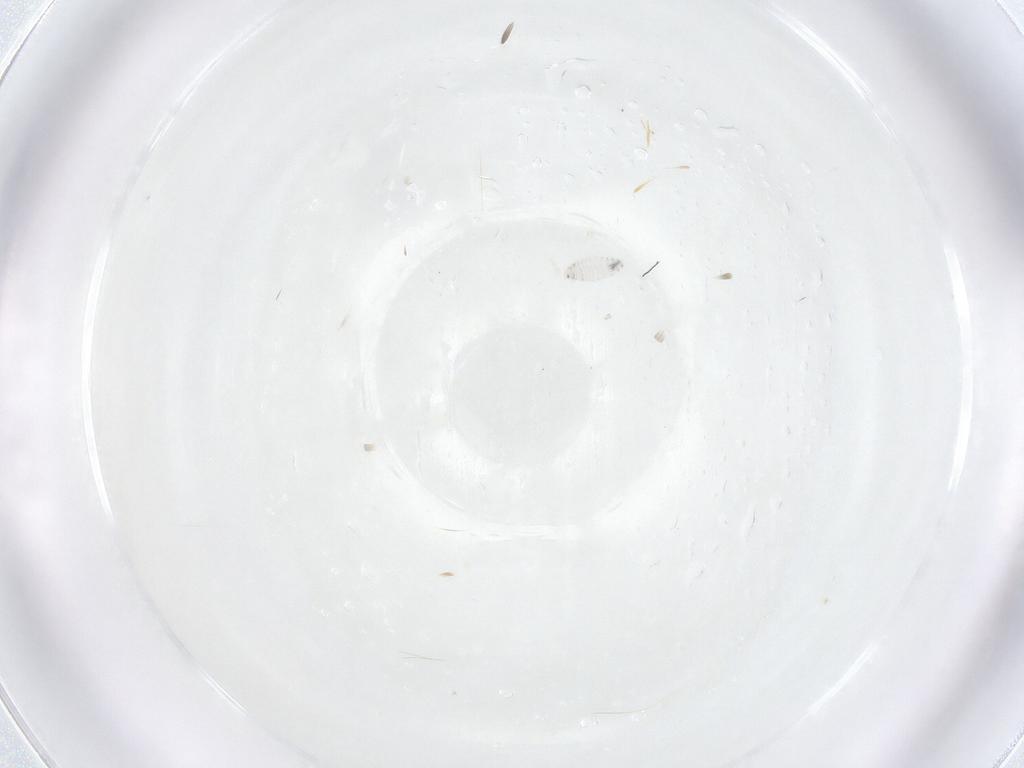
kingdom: Animalia
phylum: Arthropoda
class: Insecta
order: Diptera
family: Tachinidae
